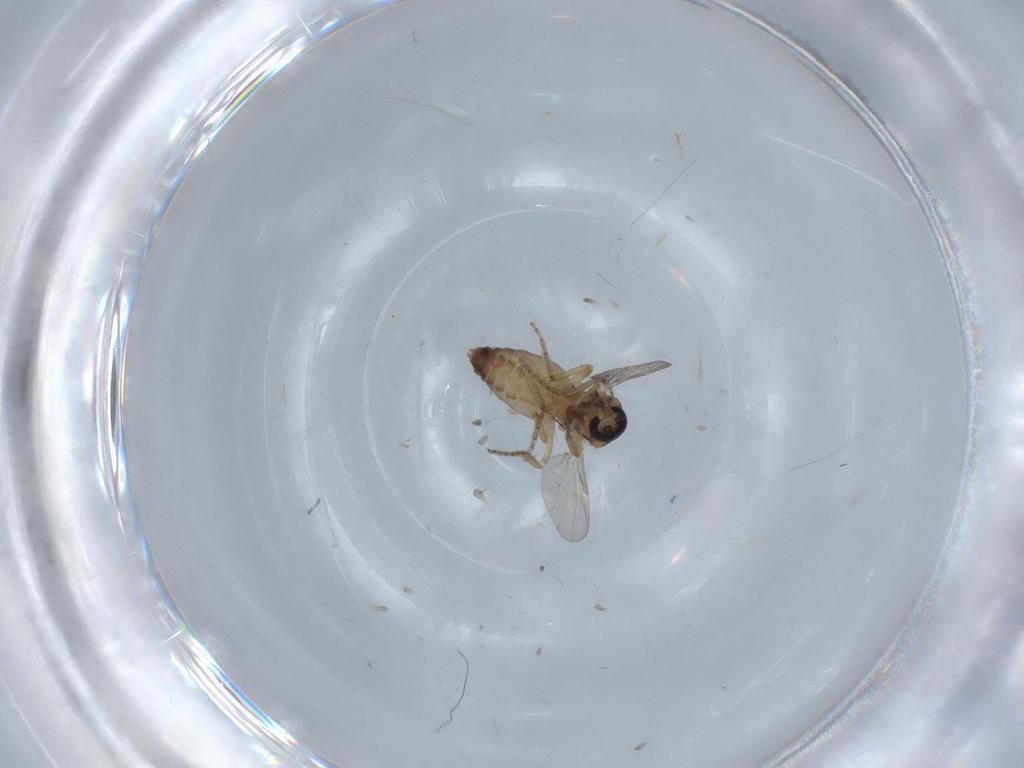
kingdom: Animalia
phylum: Arthropoda
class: Insecta
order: Diptera
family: Ceratopogonidae
